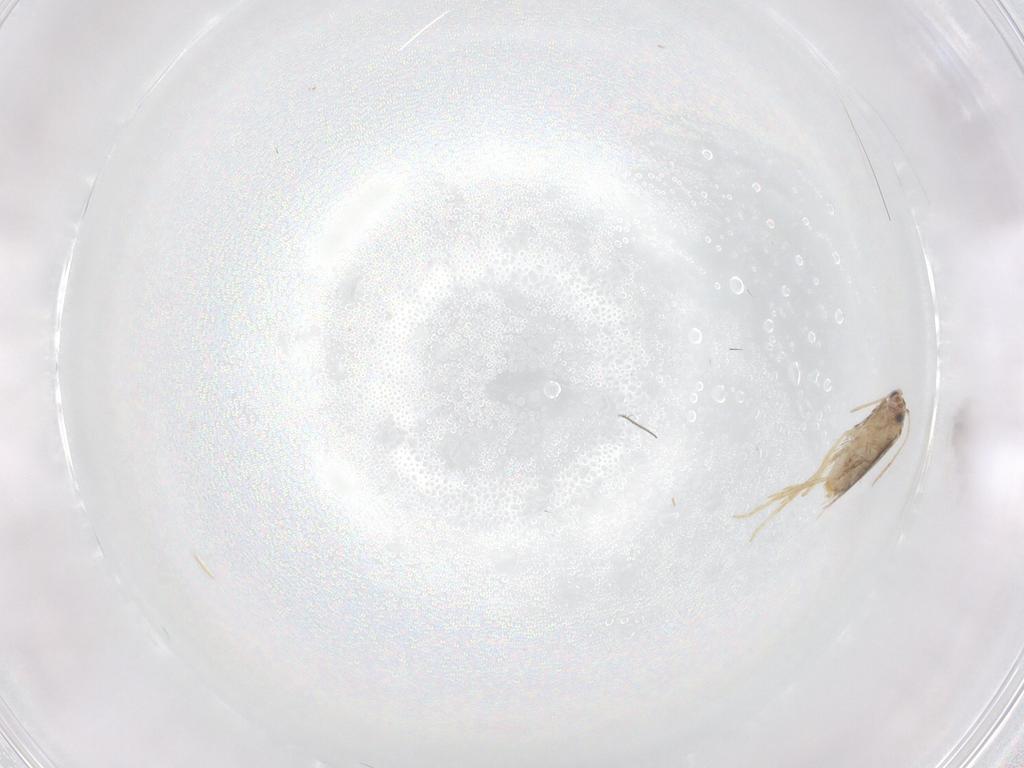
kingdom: Animalia
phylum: Arthropoda
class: Insecta
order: Lepidoptera
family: Nepticulidae
